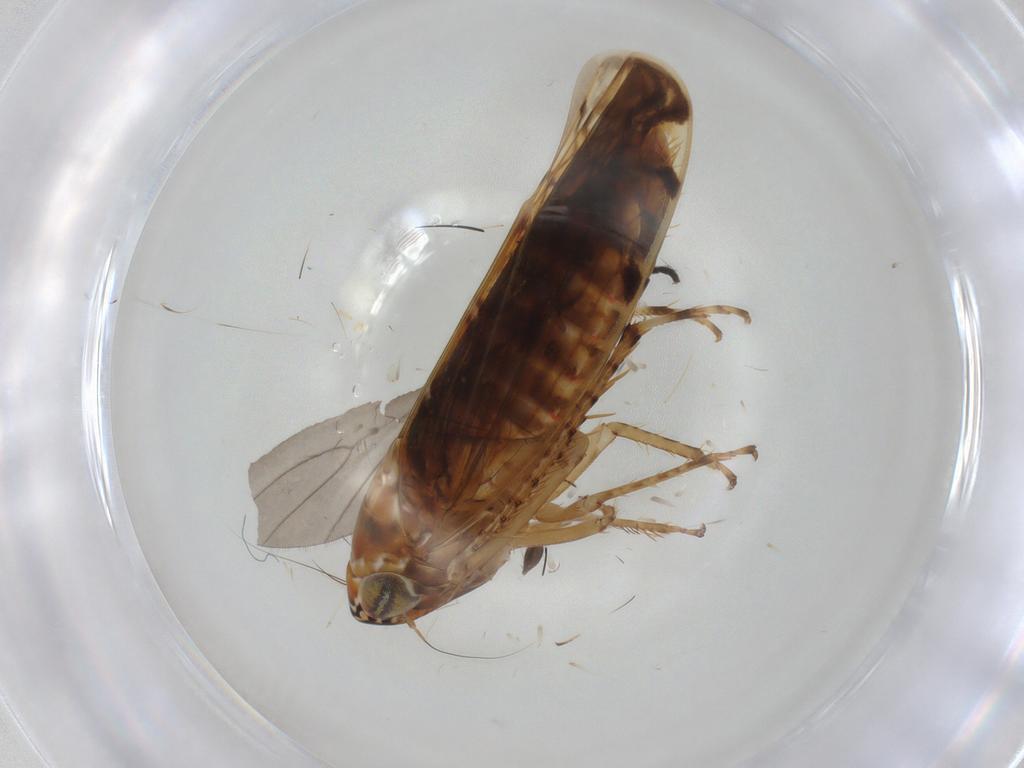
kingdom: Animalia
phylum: Arthropoda
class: Insecta
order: Hemiptera
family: Cicadellidae
